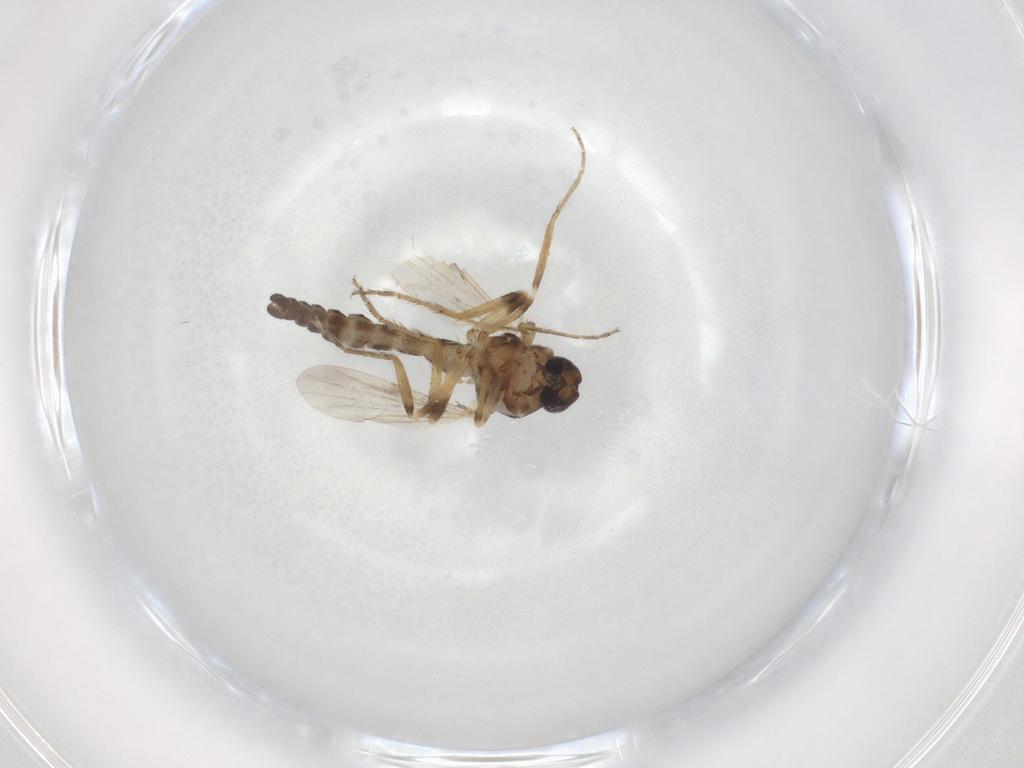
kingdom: Animalia
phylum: Arthropoda
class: Insecta
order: Diptera
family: Ceratopogonidae
